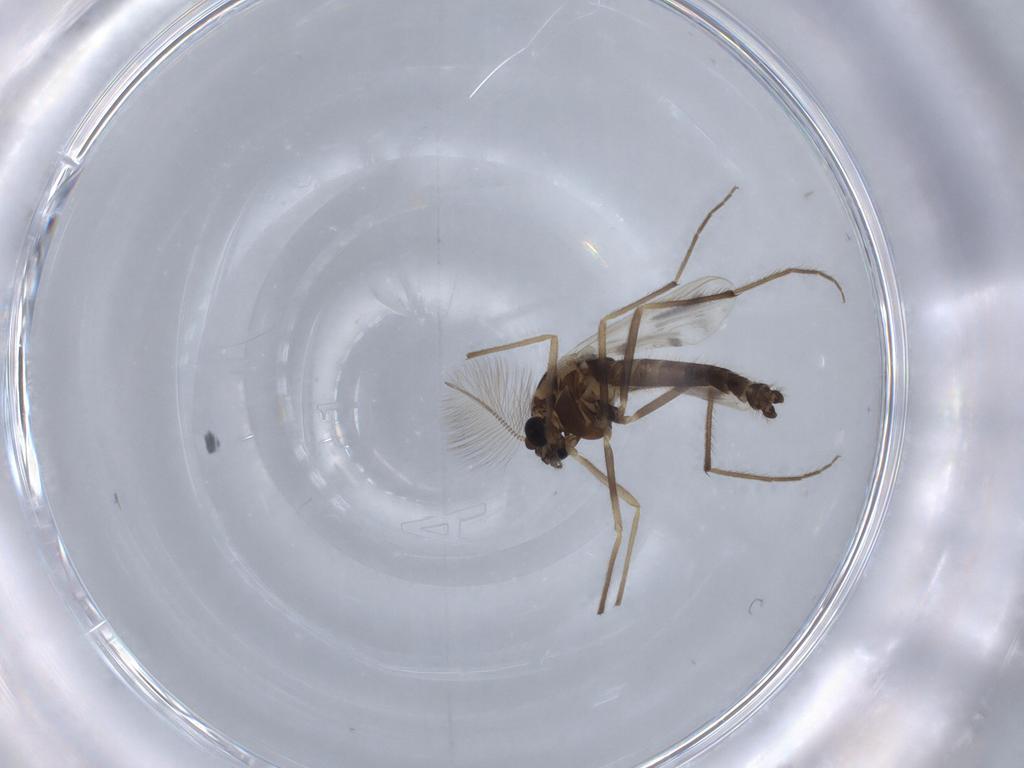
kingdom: Animalia
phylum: Arthropoda
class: Insecta
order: Diptera
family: Chironomidae
